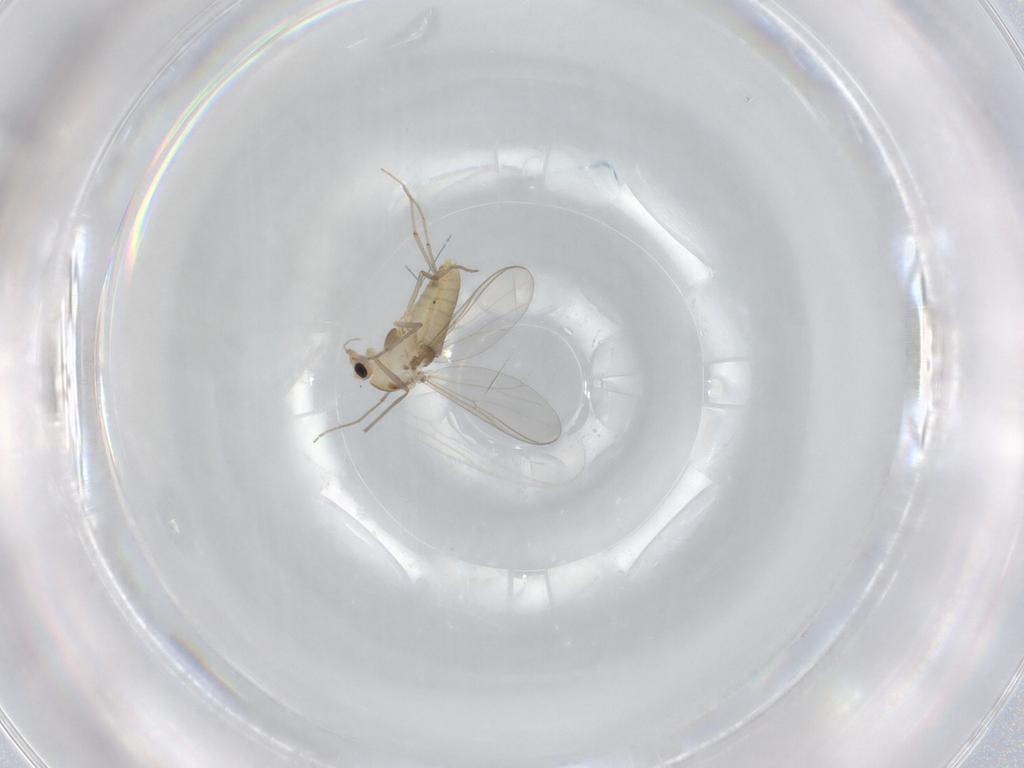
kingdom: Animalia
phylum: Arthropoda
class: Insecta
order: Diptera
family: Chironomidae
